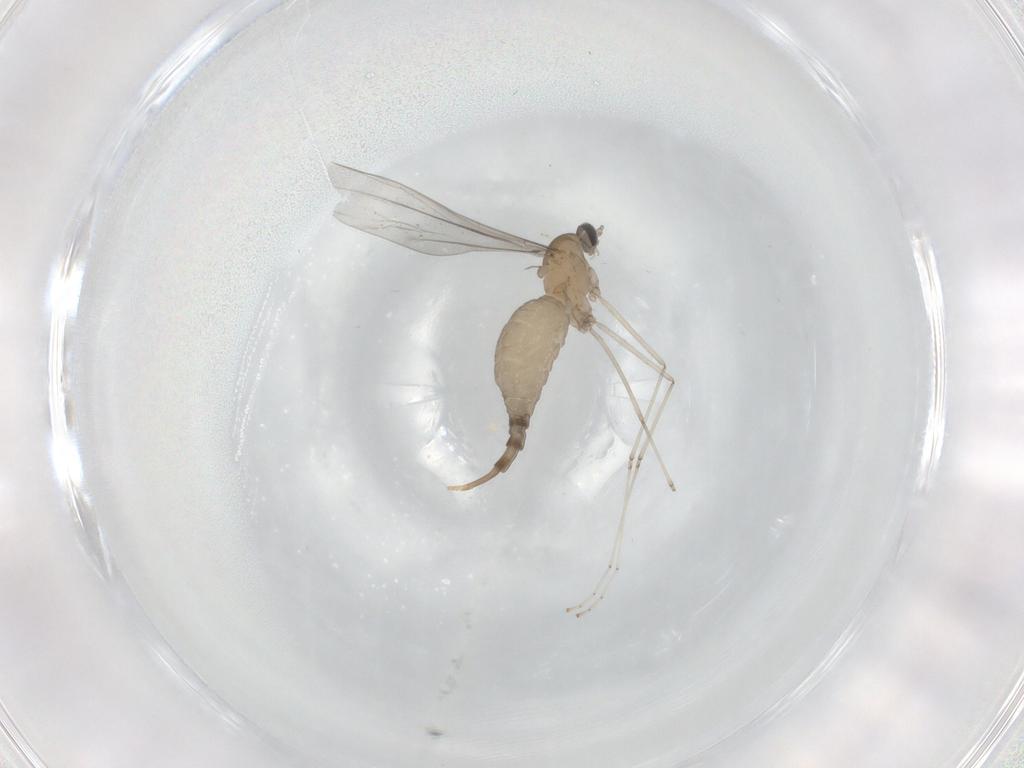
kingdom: Animalia
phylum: Arthropoda
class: Insecta
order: Diptera
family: Cecidomyiidae
